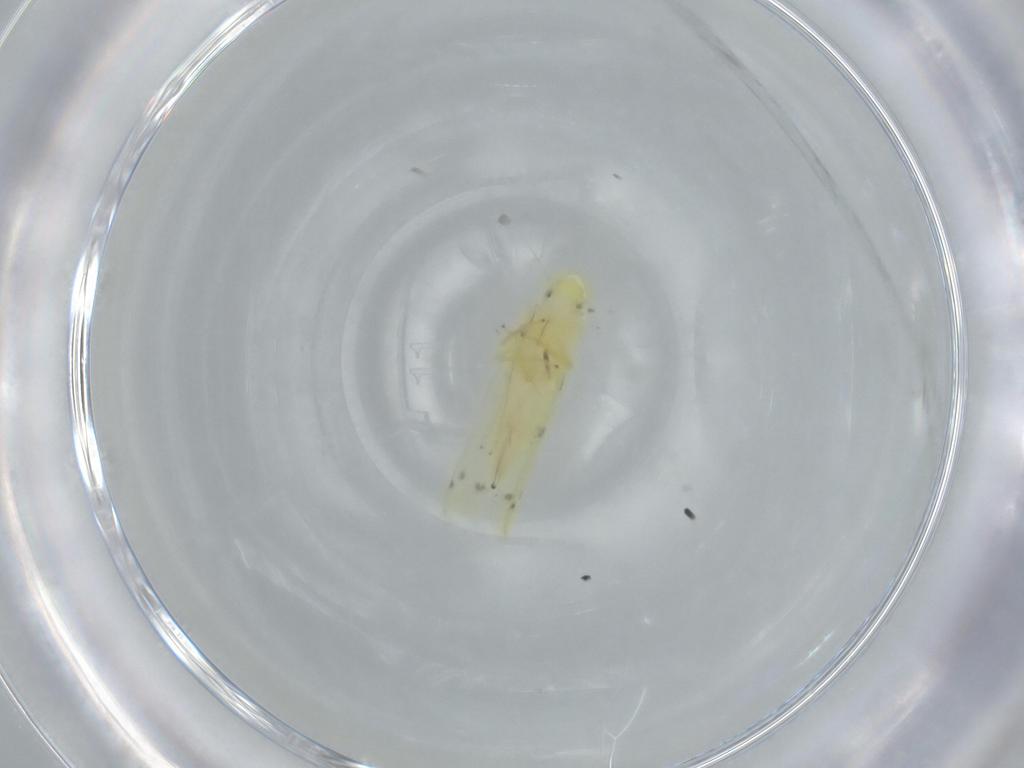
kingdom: Animalia
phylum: Arthropoda
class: Insecta
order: Hemiptera
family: Cicadellidae
